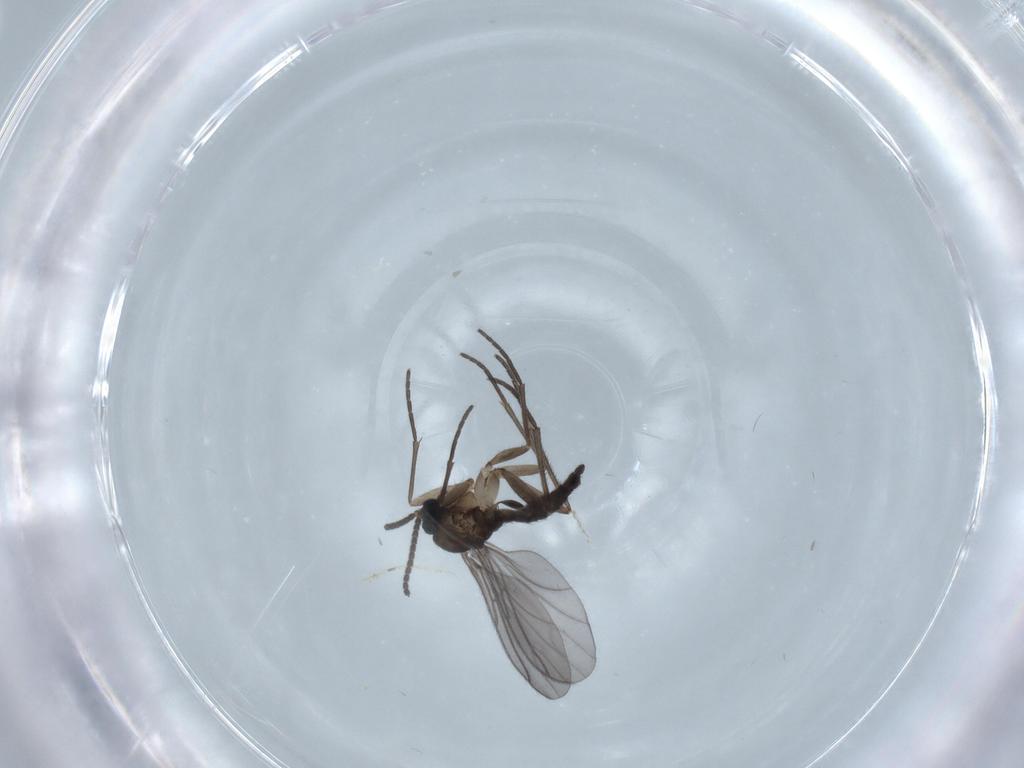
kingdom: Animalia
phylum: Arthropoda
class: Insecta
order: Diptera
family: Sciaridae
